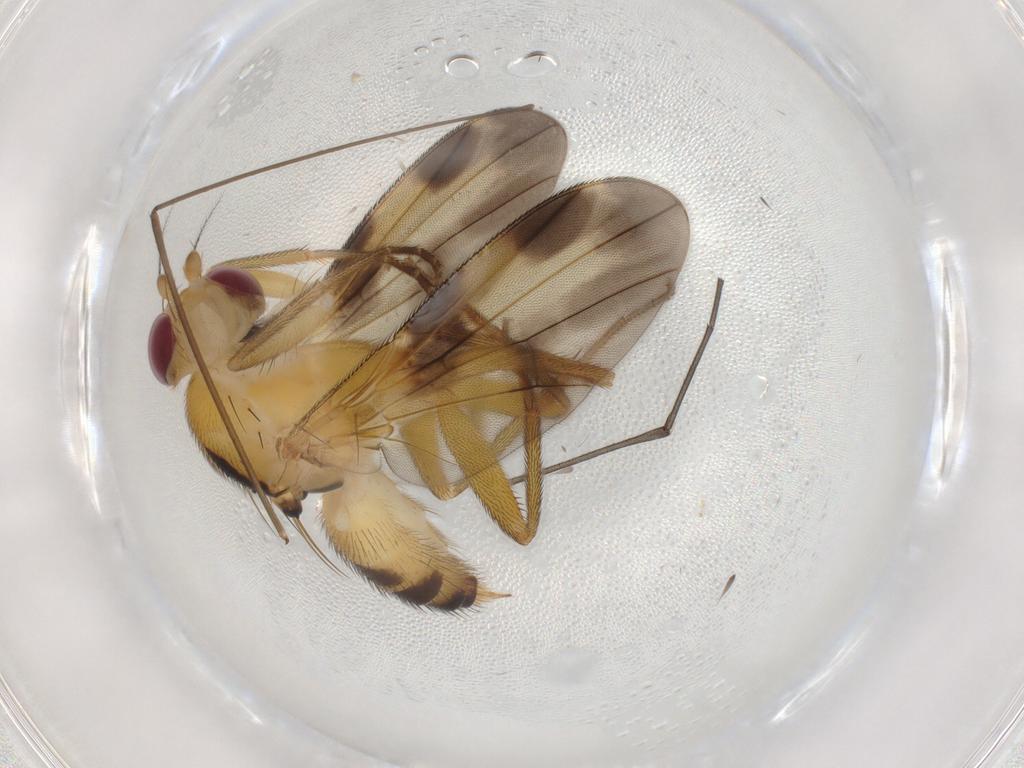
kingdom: Animalia
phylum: Arthropoda
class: Insecta
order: Diptera
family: Clusiidae
